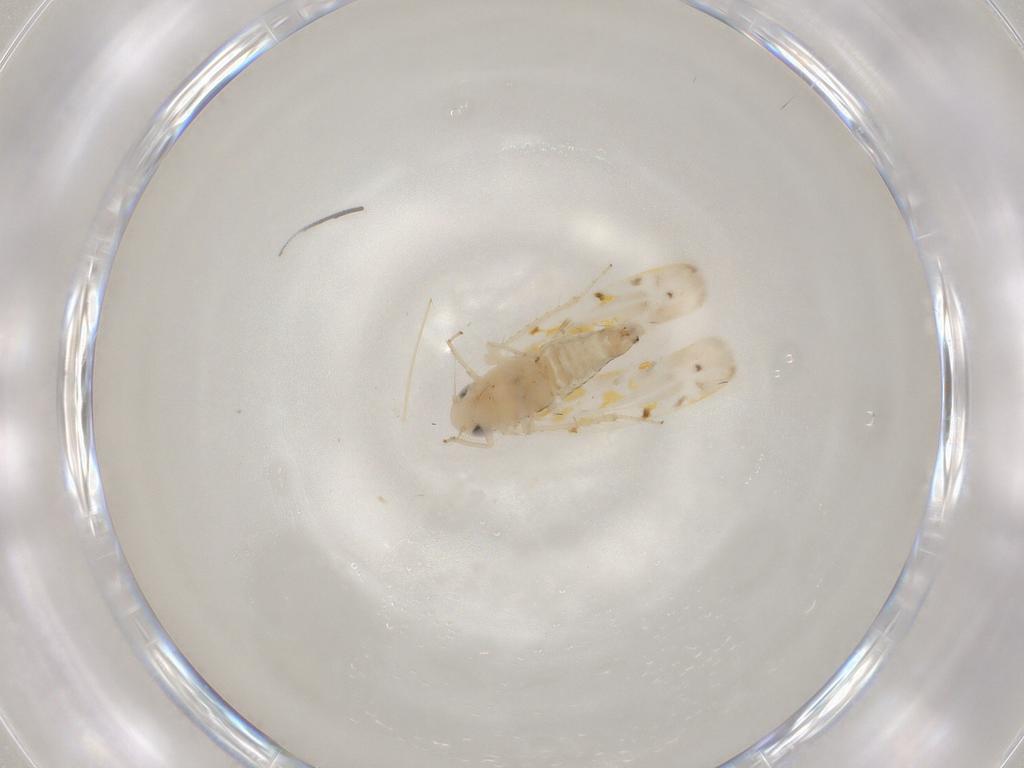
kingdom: Animalia
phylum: Arthropoda
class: Insecta
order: Hemiptera
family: Cicadellidae
